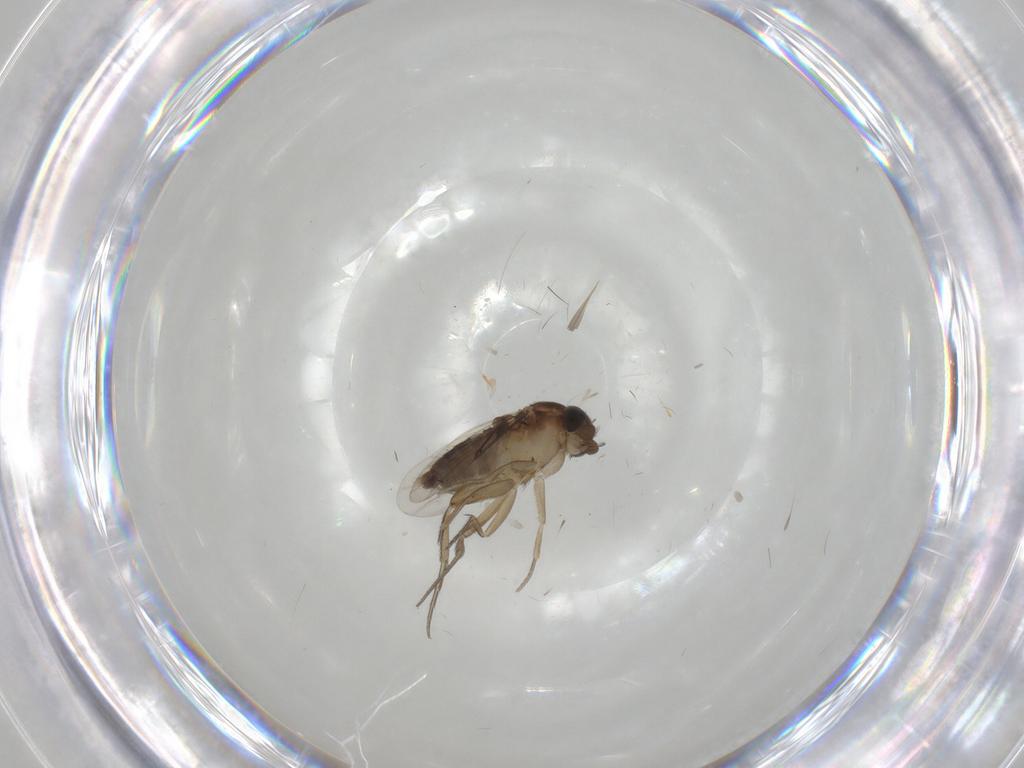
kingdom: Animalia
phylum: Arthropoda
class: Insecta
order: Diptera
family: Phoridae
